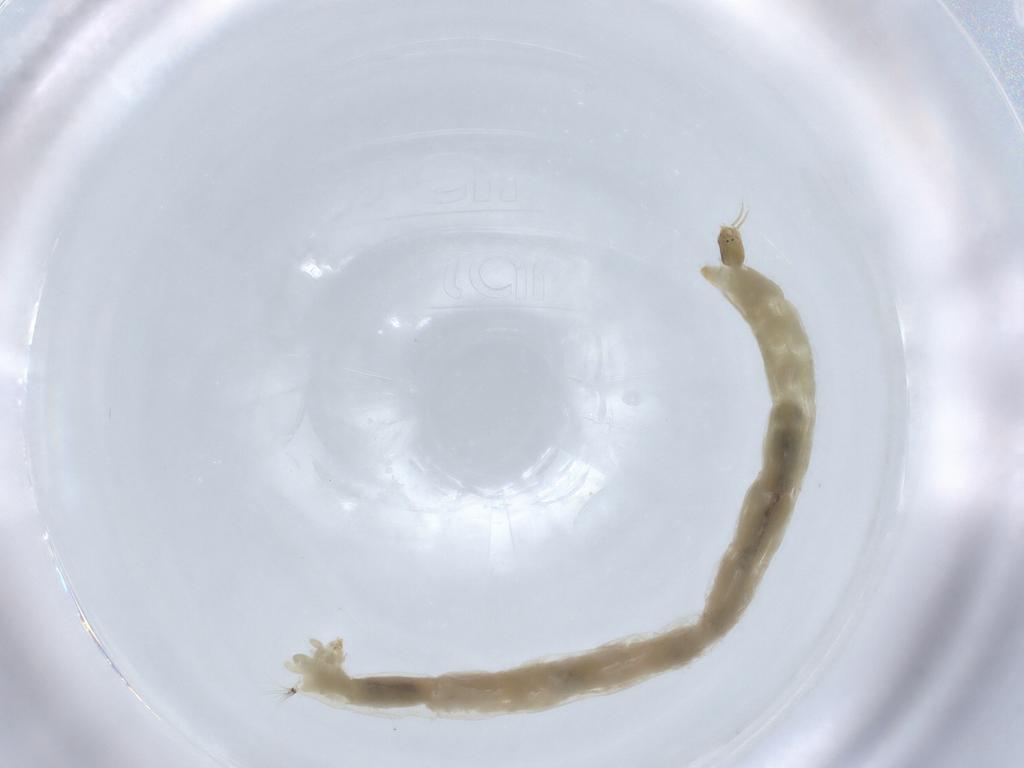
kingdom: Animalia
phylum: Arthropoda
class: Insecta
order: Diptera
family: Chironomidae
